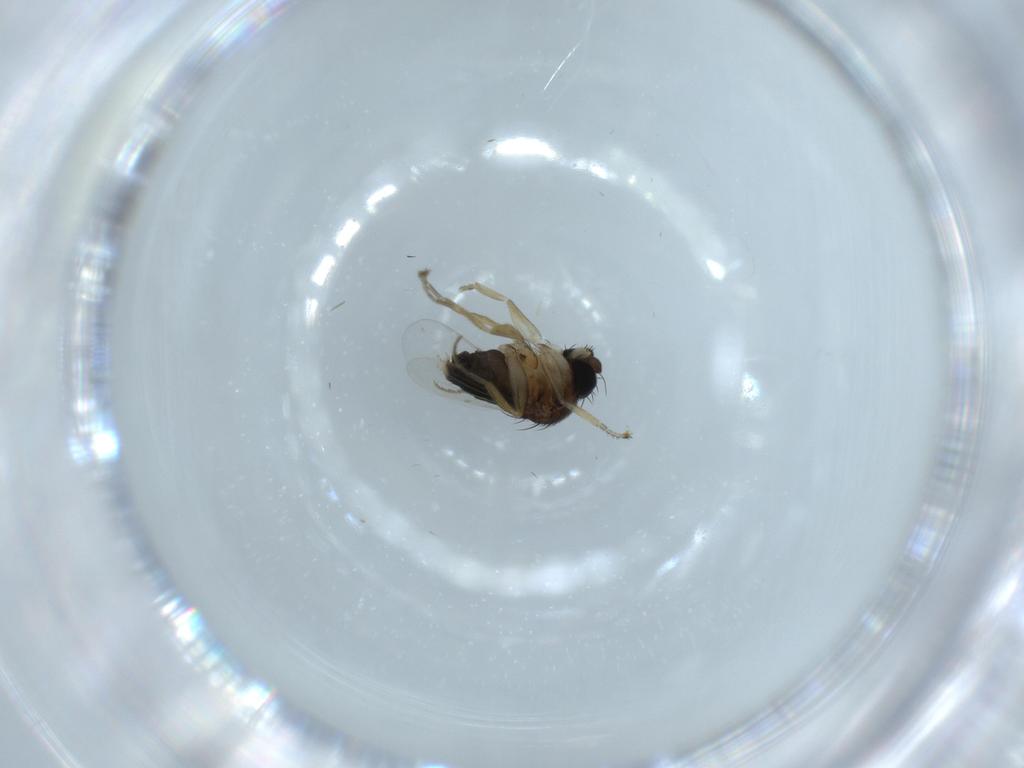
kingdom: Animalia
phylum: Arthropoda
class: Insecta
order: Diptera
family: Phoridae
